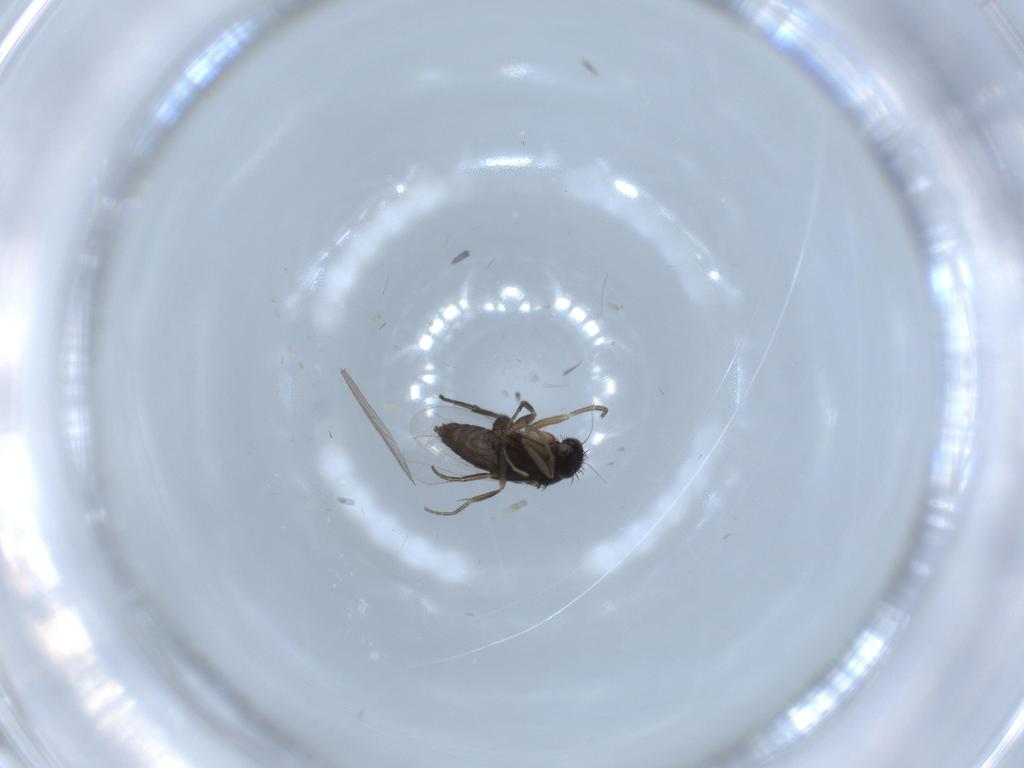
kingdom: Animalia
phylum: Arthropoda
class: Insecta
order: Diptera
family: Phoridae
